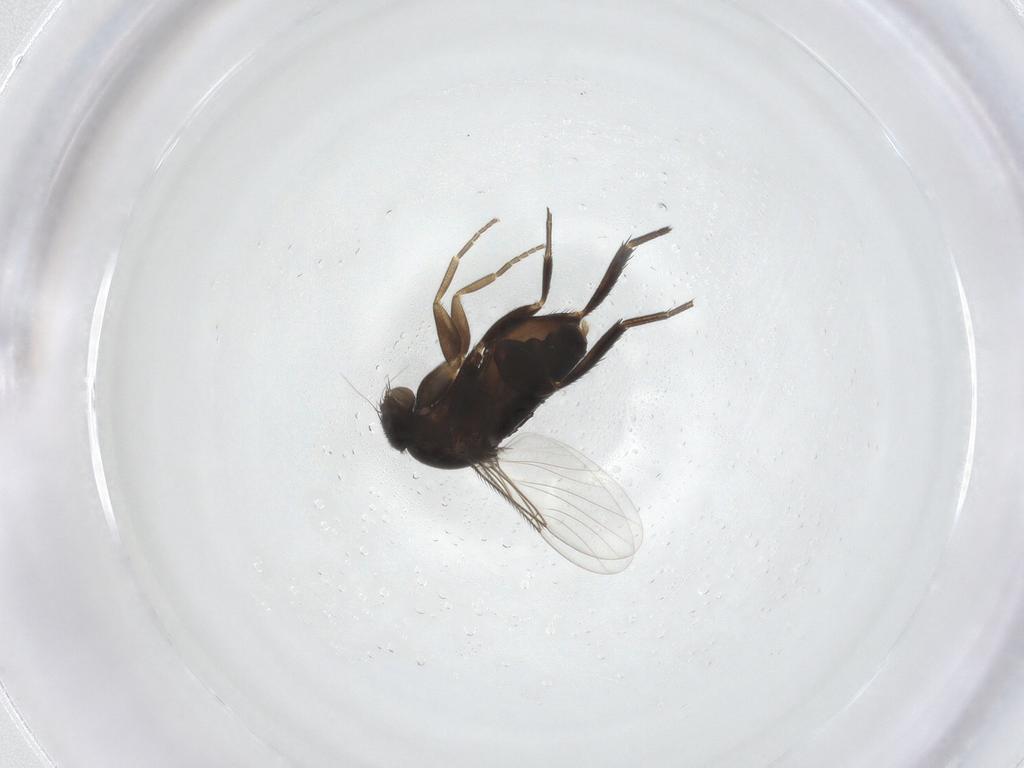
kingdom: Animalia
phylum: Arthropoda
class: Insecta
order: Diptera
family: Phoridae
